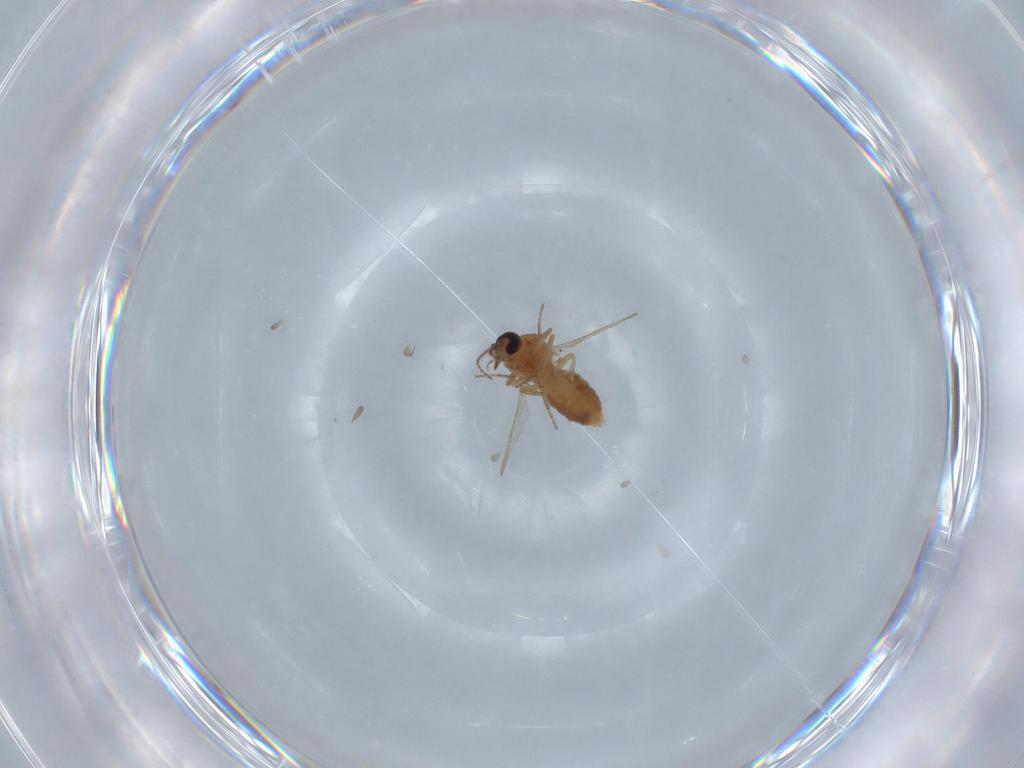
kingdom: Animalia
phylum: Arthropoda
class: Insecta
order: Diptera
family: Ceratopogonidae
